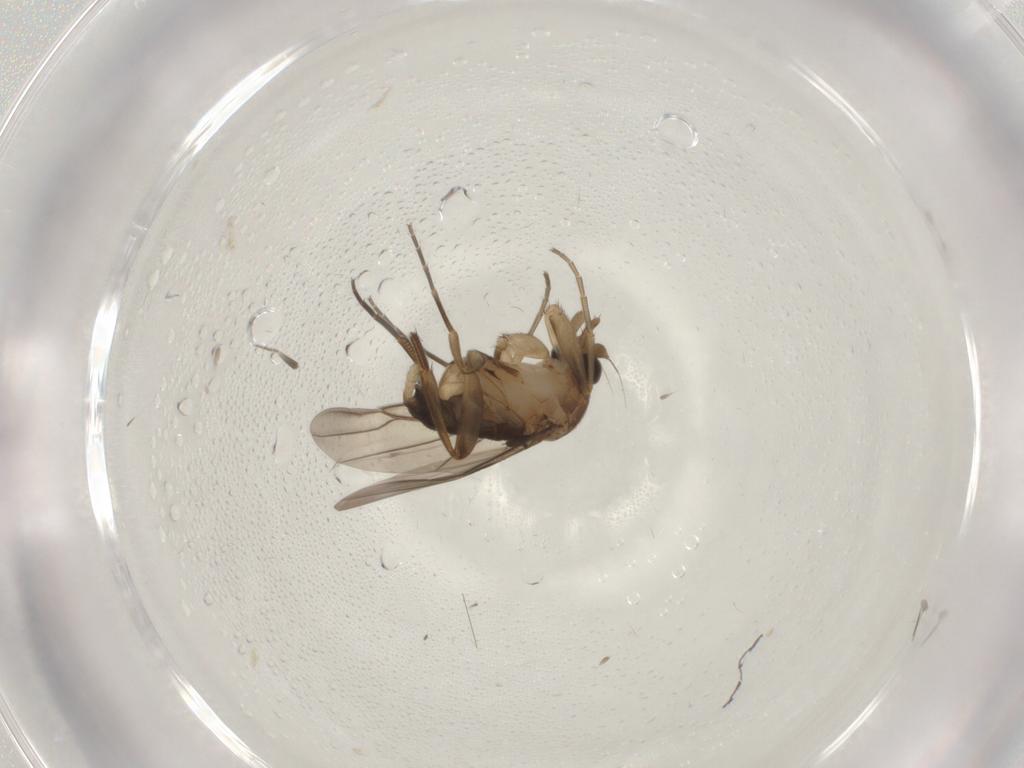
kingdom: Animalia
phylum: Arthropoda
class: Insecta
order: Diptera
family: Phoridae
